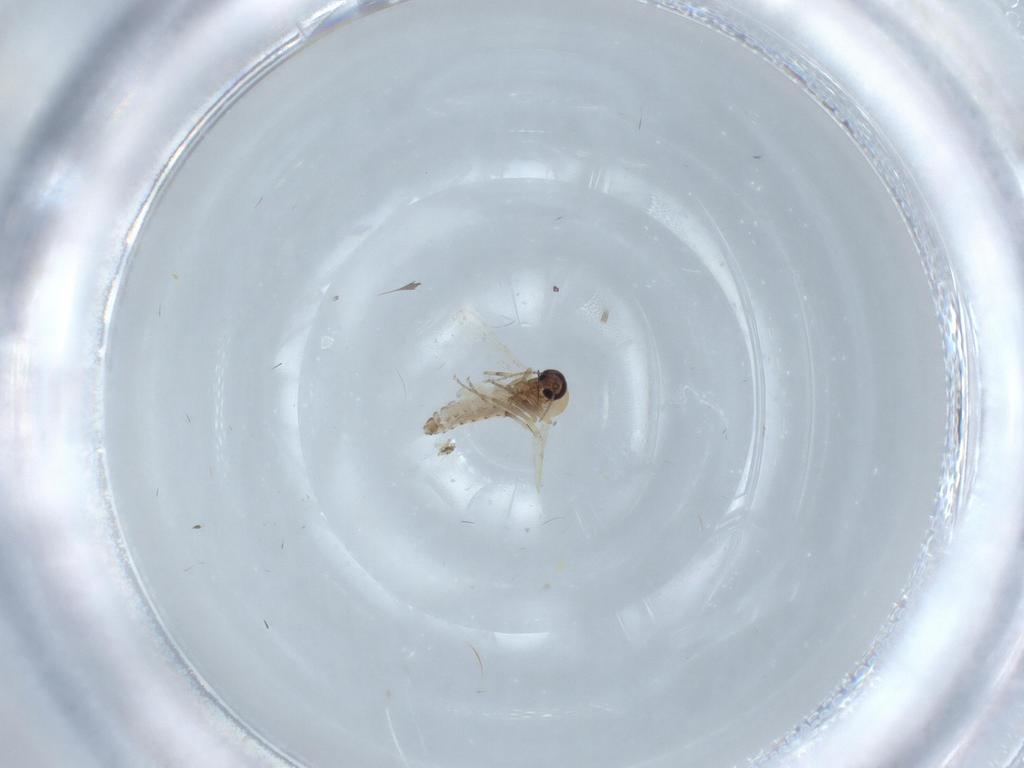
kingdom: Animalia
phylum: Arthropoda
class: Insecta
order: Diptera
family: Ceratopogonidae
